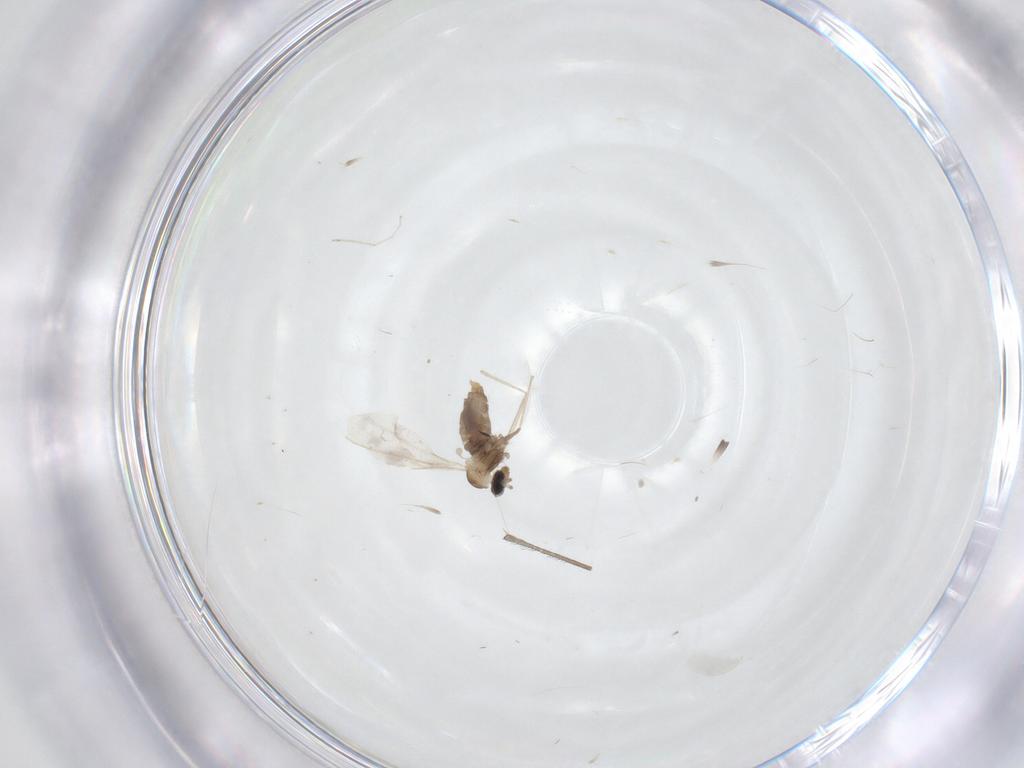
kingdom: Animalia
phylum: Arthropoda
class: Insecta
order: Diptera
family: Cecidomyiidae
